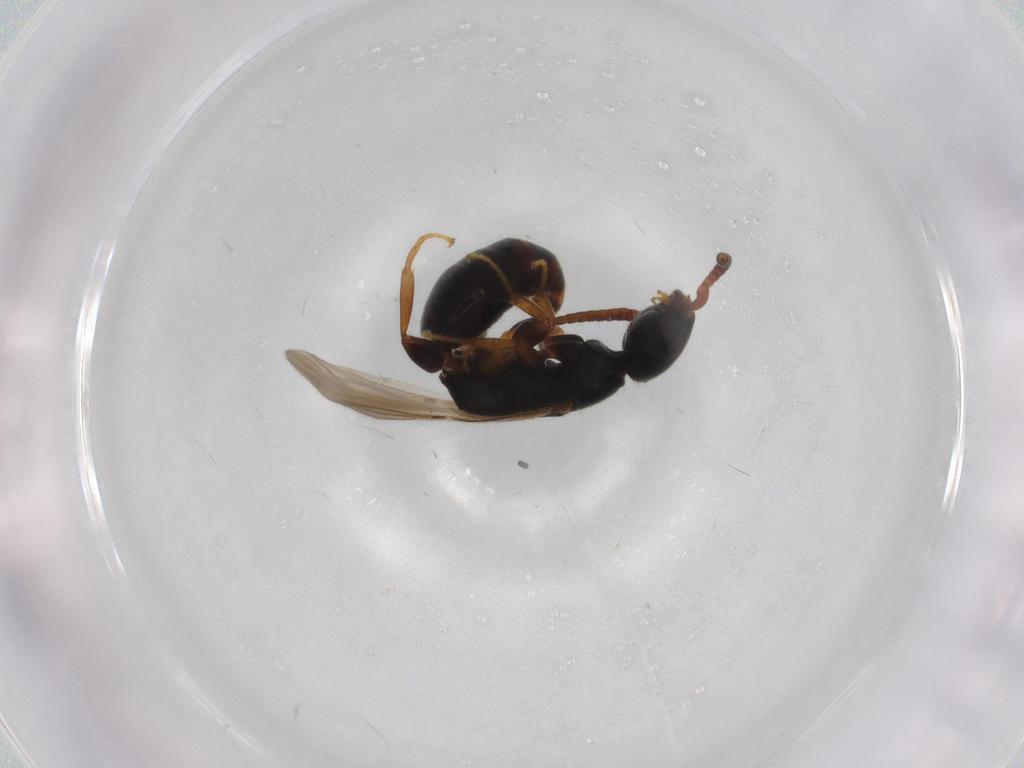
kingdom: Animalia
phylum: Arthropoda
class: Insecta
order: Hymenoptera
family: Bethylidae
